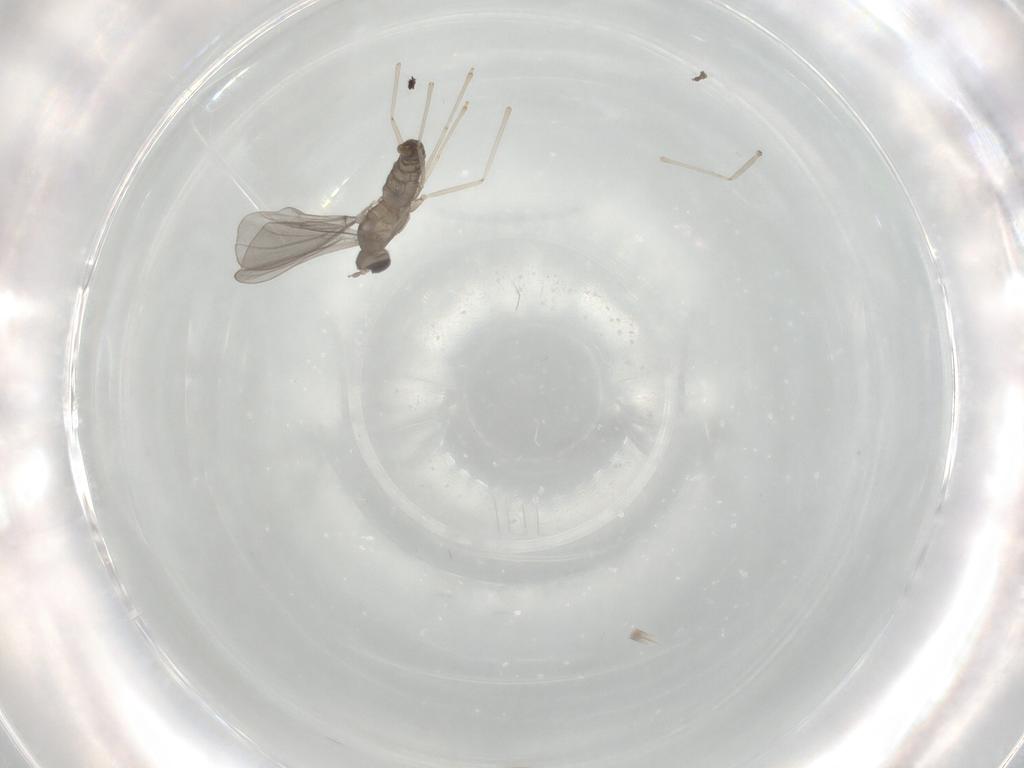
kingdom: Animalia
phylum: Arthropoda
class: Insecta
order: Diptera
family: Cecidomyiidae
